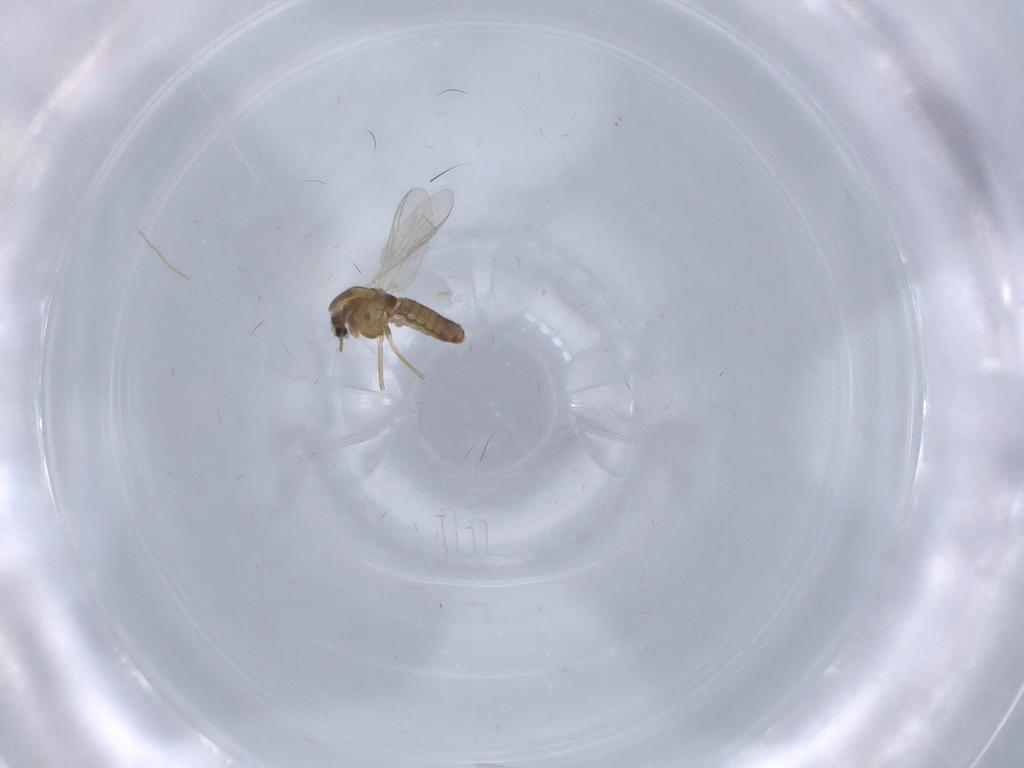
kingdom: Animalia
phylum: Arthropoda
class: Insecta
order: Diptera
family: Chironomidae
